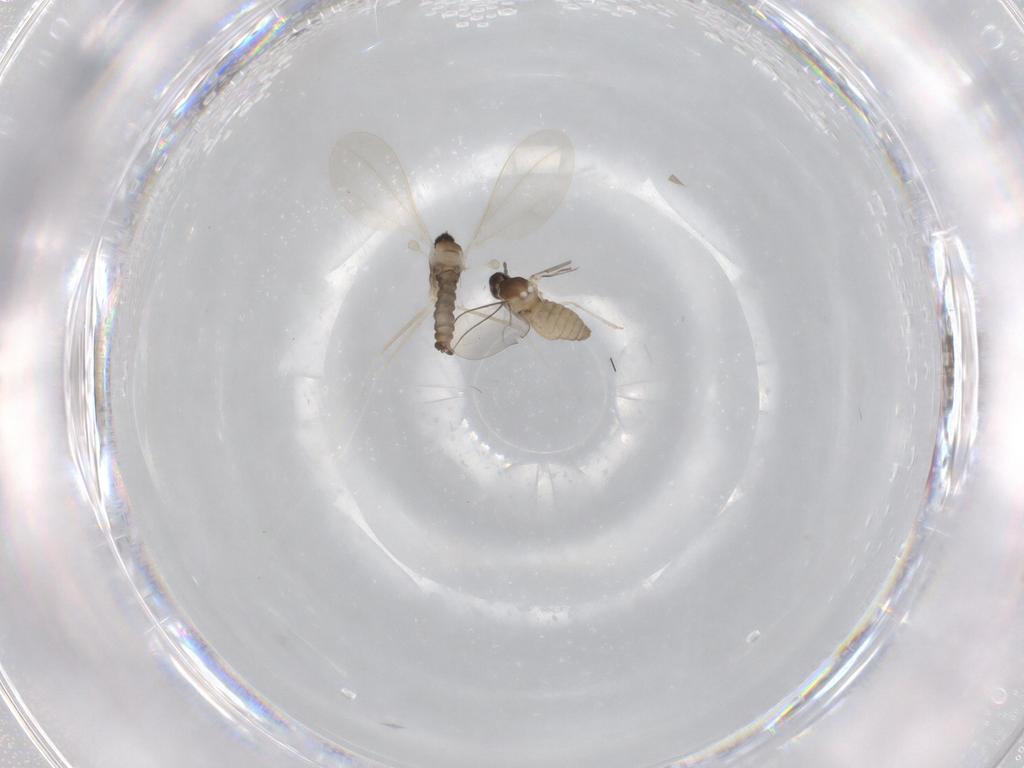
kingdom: Animalia
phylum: Arthropoda
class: Insecta
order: Diptera
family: Cecidomyiidae
